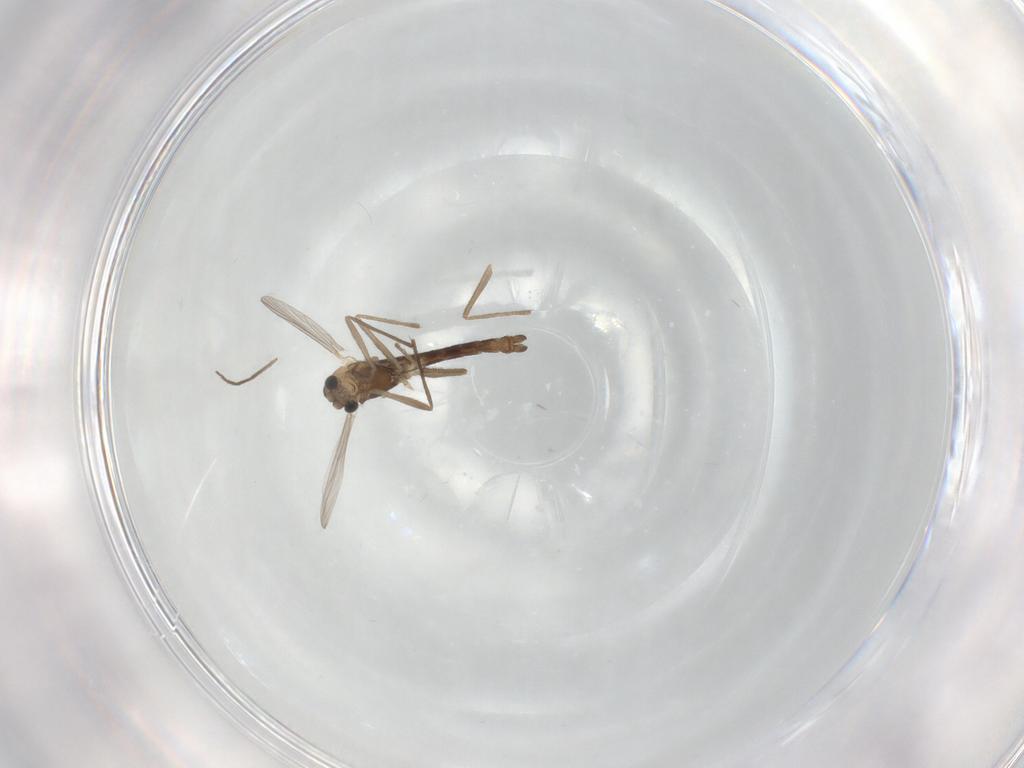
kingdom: Animalia
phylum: Arthropoda
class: Insecta
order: Diptera
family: Chironomidae
